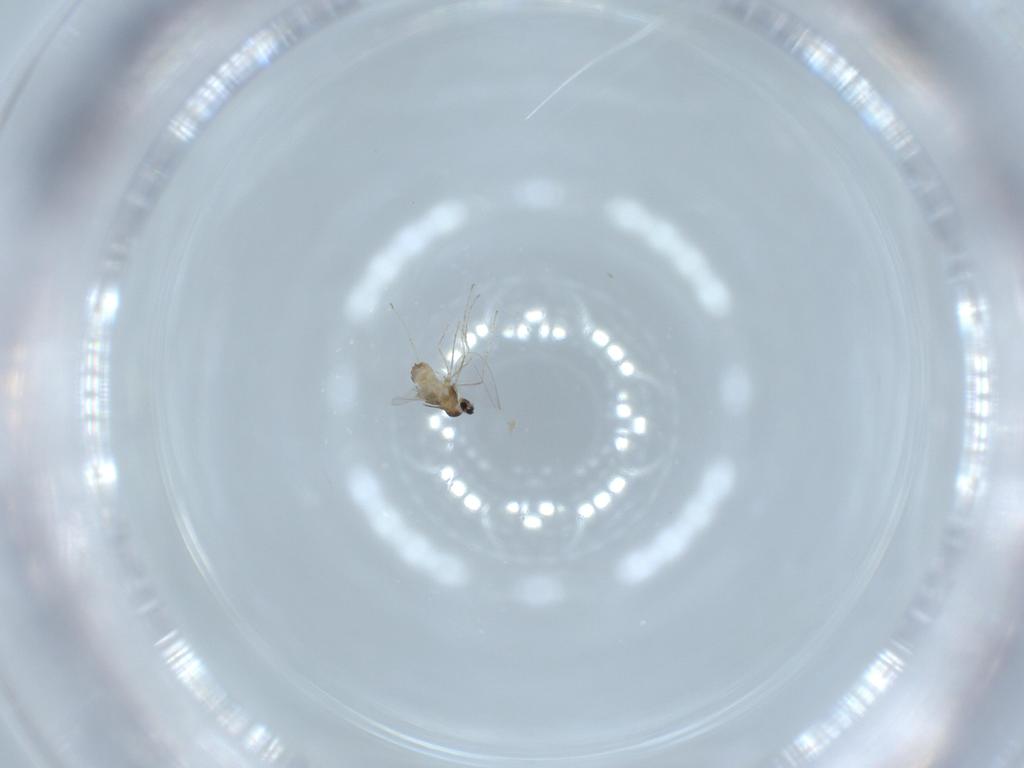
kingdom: Animalia
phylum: Arthropoda
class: Insecta
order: Diptera
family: Cecidomyiidae
